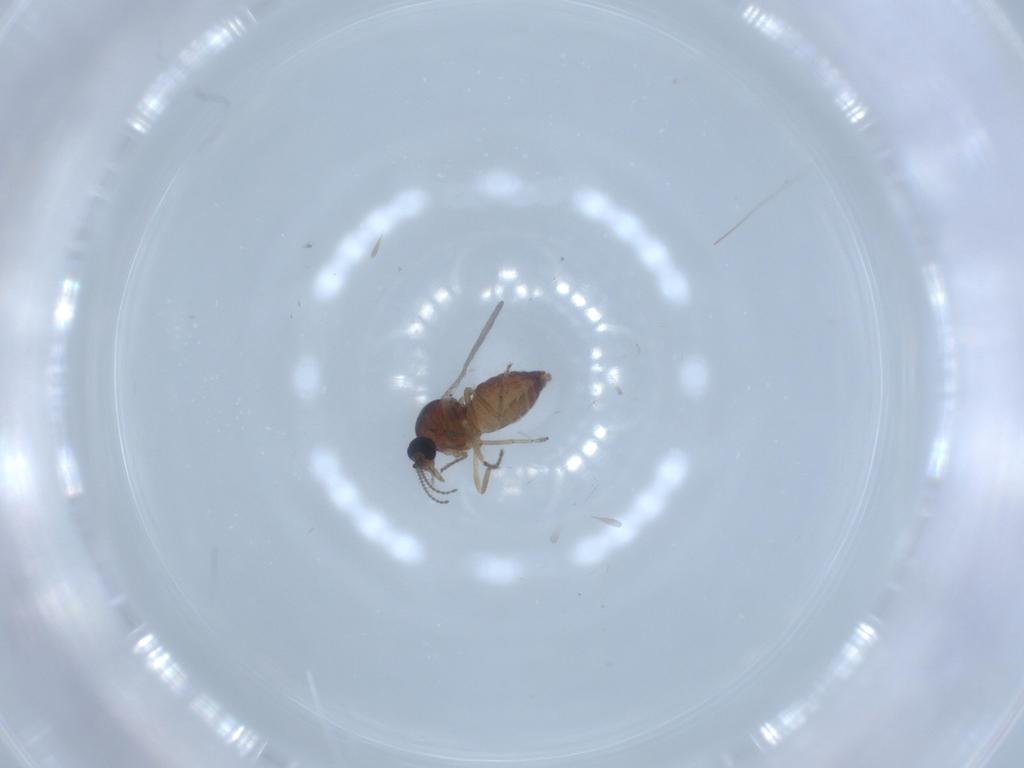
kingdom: Animalia
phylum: Arthropoda
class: Insecta
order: Diptera
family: Ceratopogonidae
